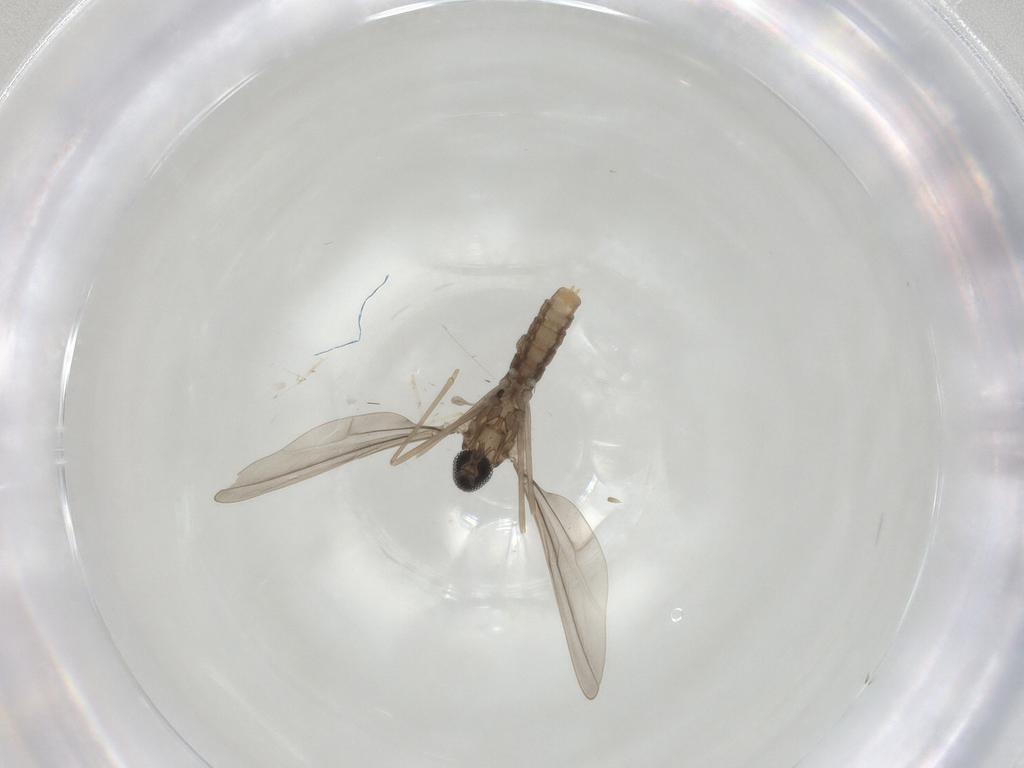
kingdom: Animalia
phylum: Arthropoda
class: Insecta
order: Diptera
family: Cecidomyiidae
